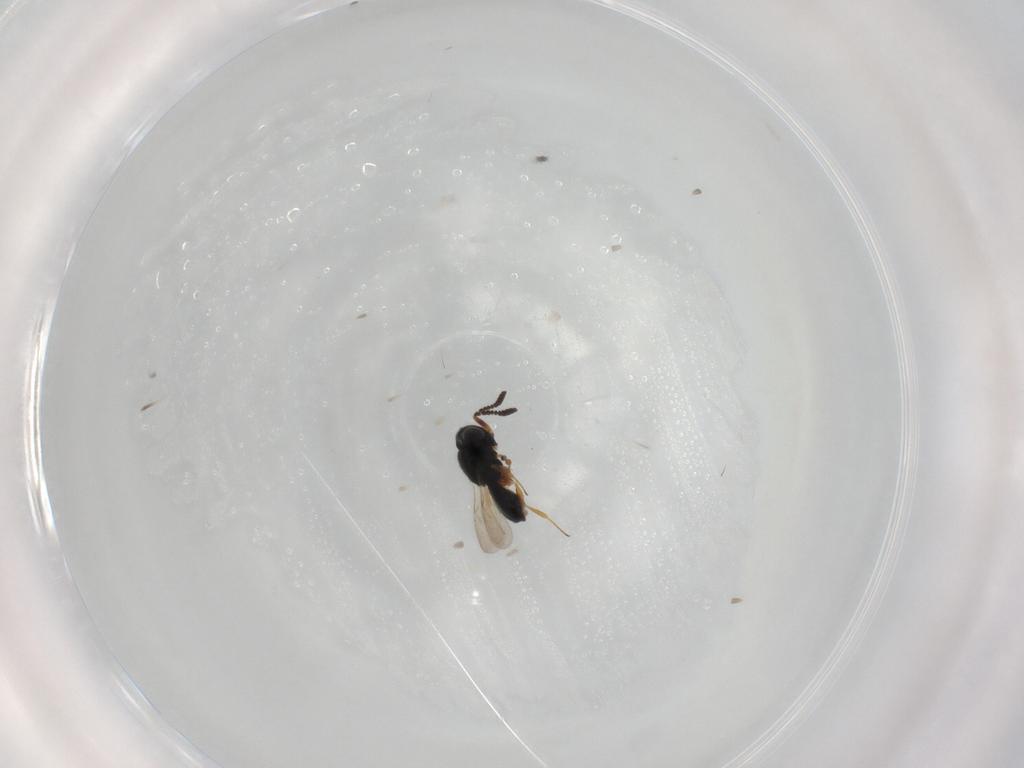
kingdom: Animalia
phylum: Arthropoda
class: Insecta
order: Hymenoptera
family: Braconidae
